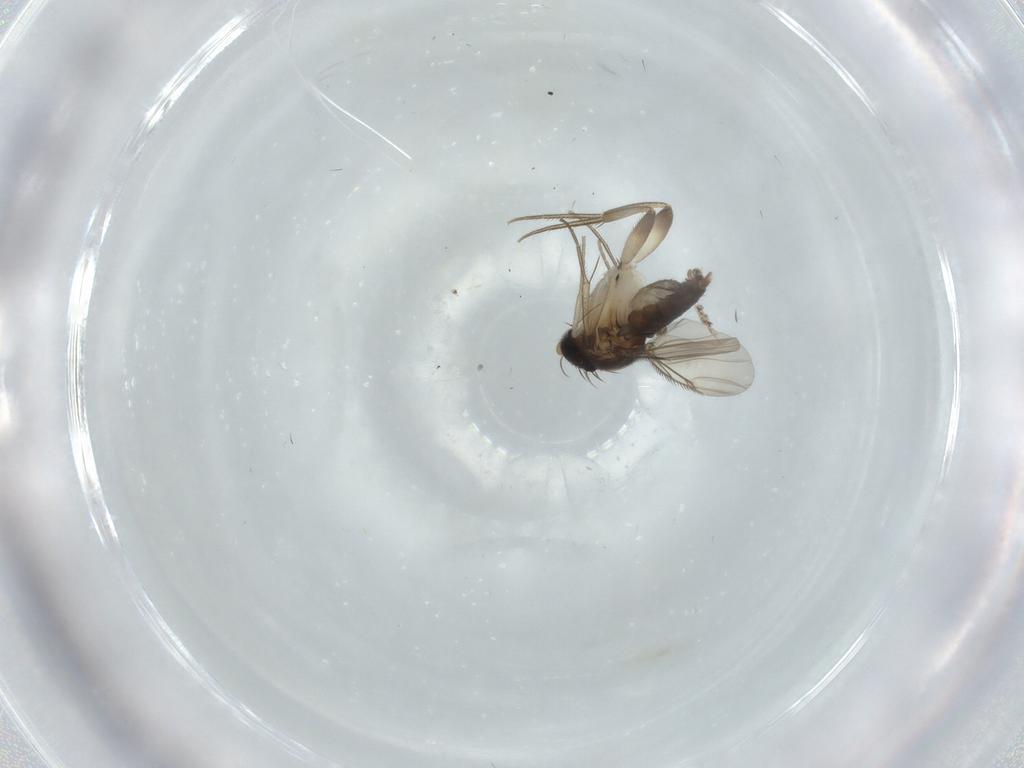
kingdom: Animalia
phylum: Arthropoda
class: Insecta
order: Diptera
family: Phoridae
